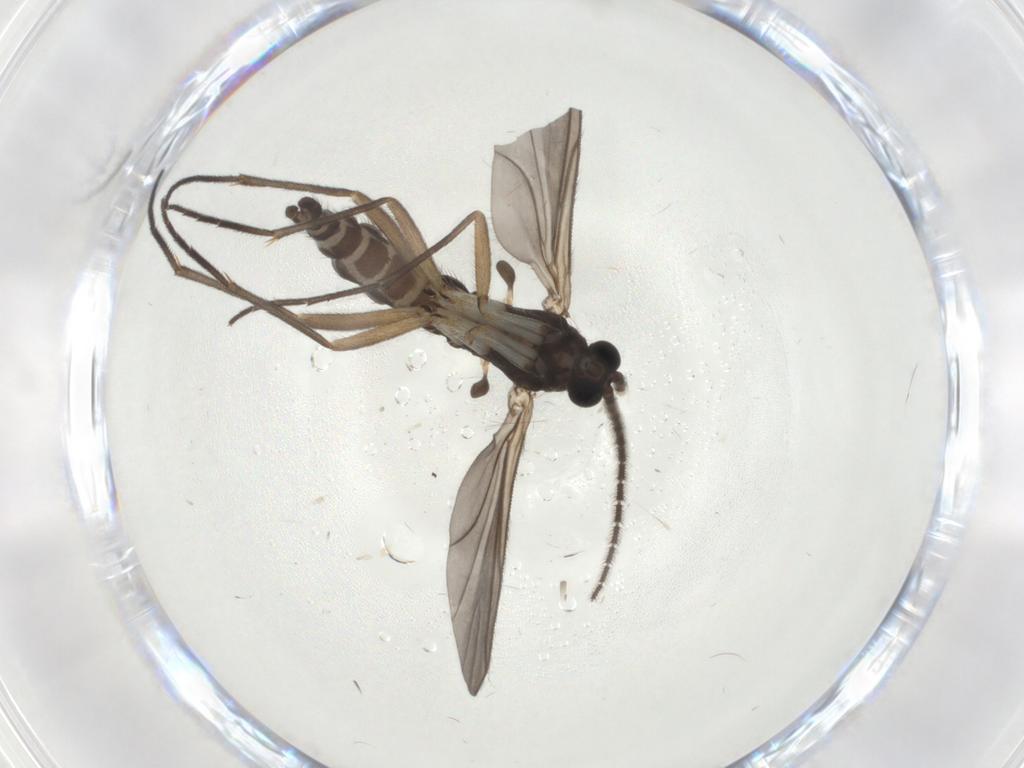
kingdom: Animalia
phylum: Arthropoda
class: Insecta
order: Diptera
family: Sciaridae
